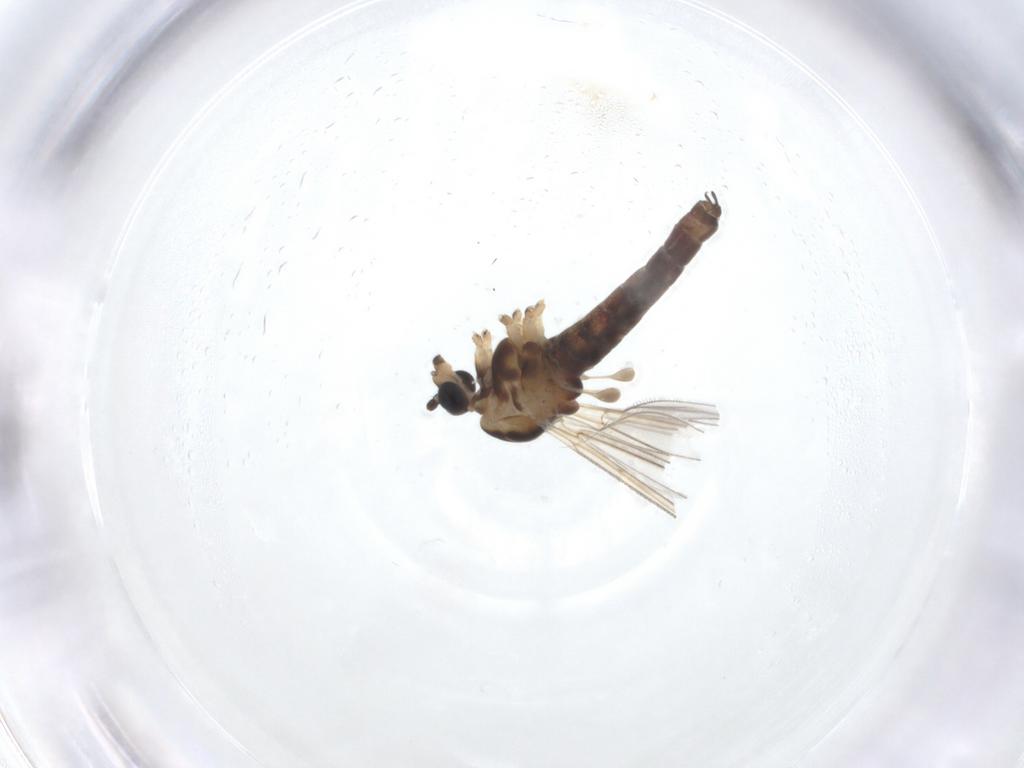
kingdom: Animalia
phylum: Arthropoda
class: Insecta
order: Diptera
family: Dixidae
